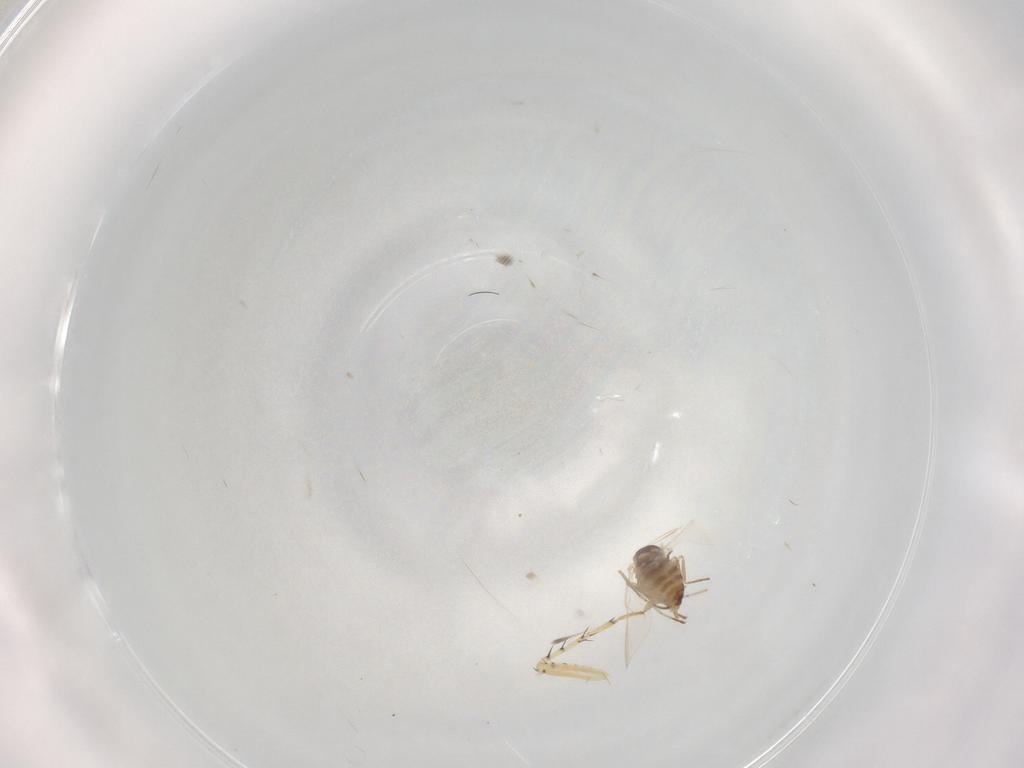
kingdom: Animalia
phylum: Arthropoda
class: Insecta
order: Diptera
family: Cecidomyiidae
